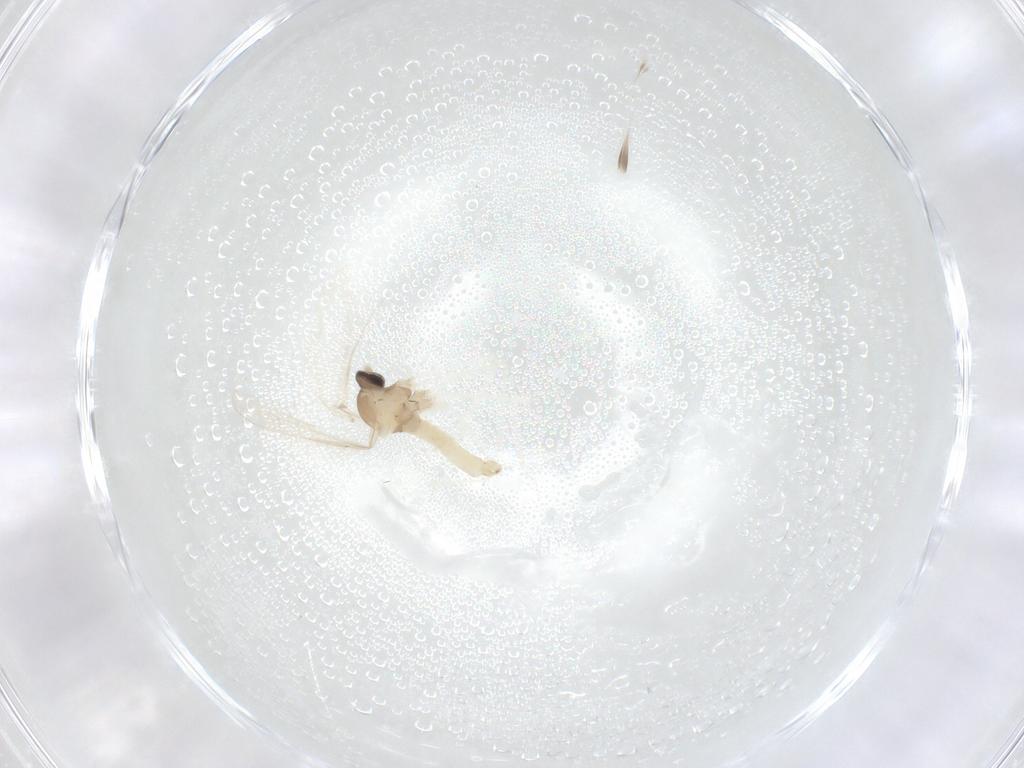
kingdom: Animalia
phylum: Arthropoda
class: Insecta
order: Diptera
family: Cecidomyiidae
